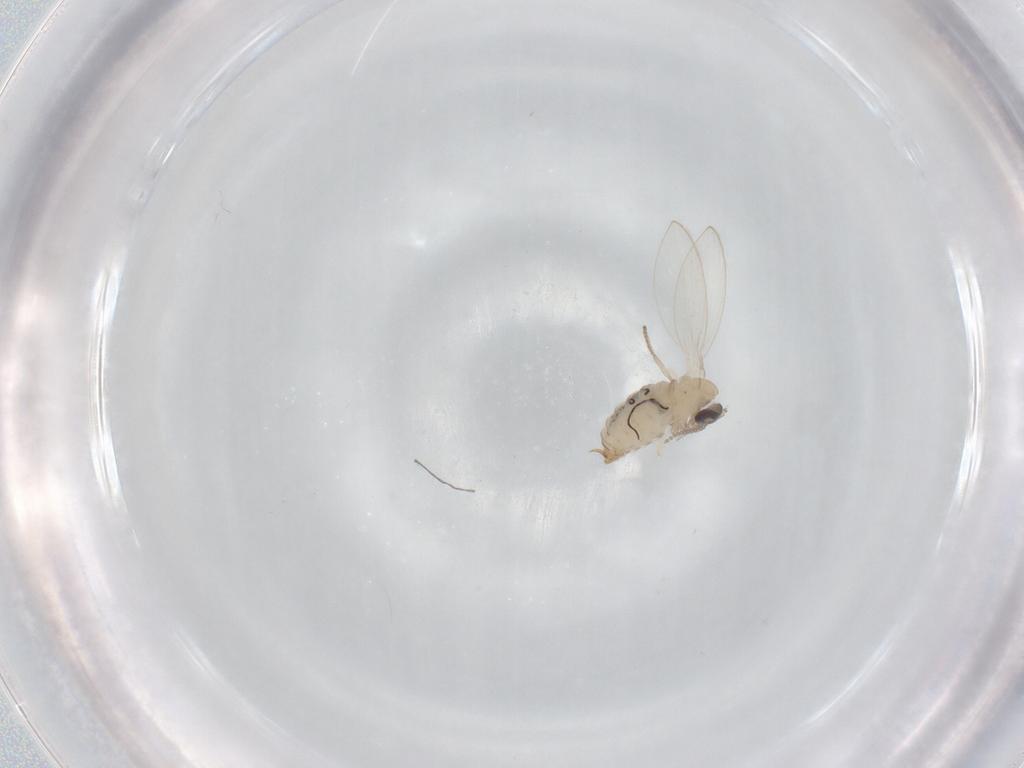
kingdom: Animalia
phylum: Arthropoda
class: Insecta
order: Diptera
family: Psychodidae
